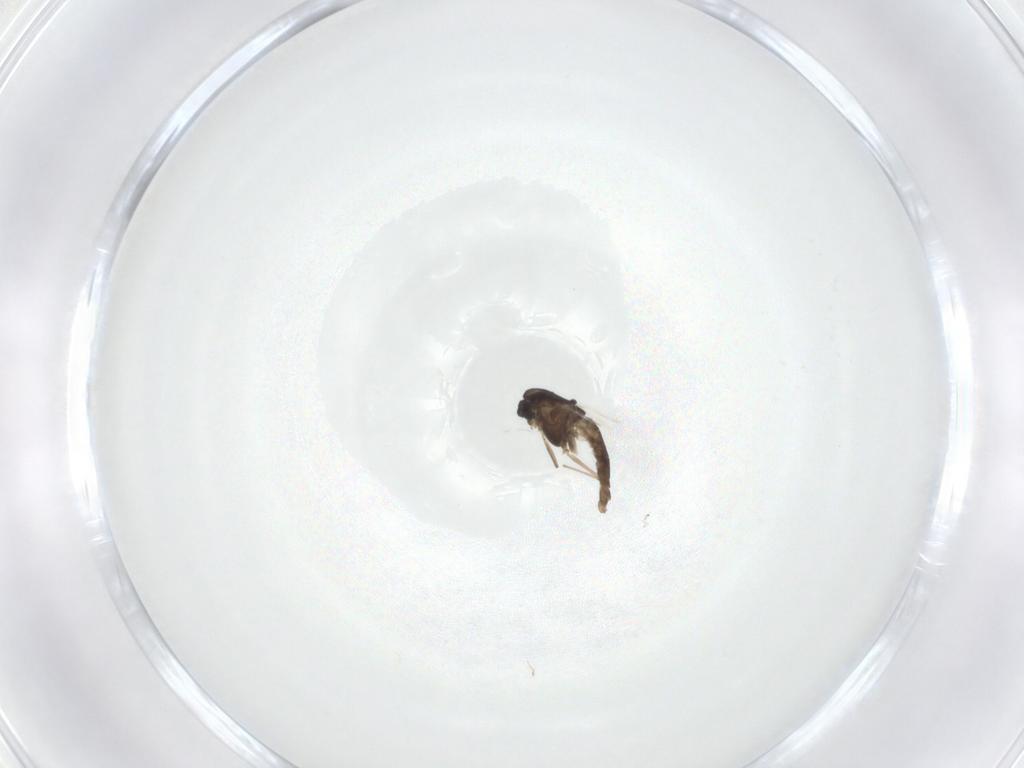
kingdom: Animalia
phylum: Arthropoda
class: Insecta
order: Diptera
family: Chironomidae
